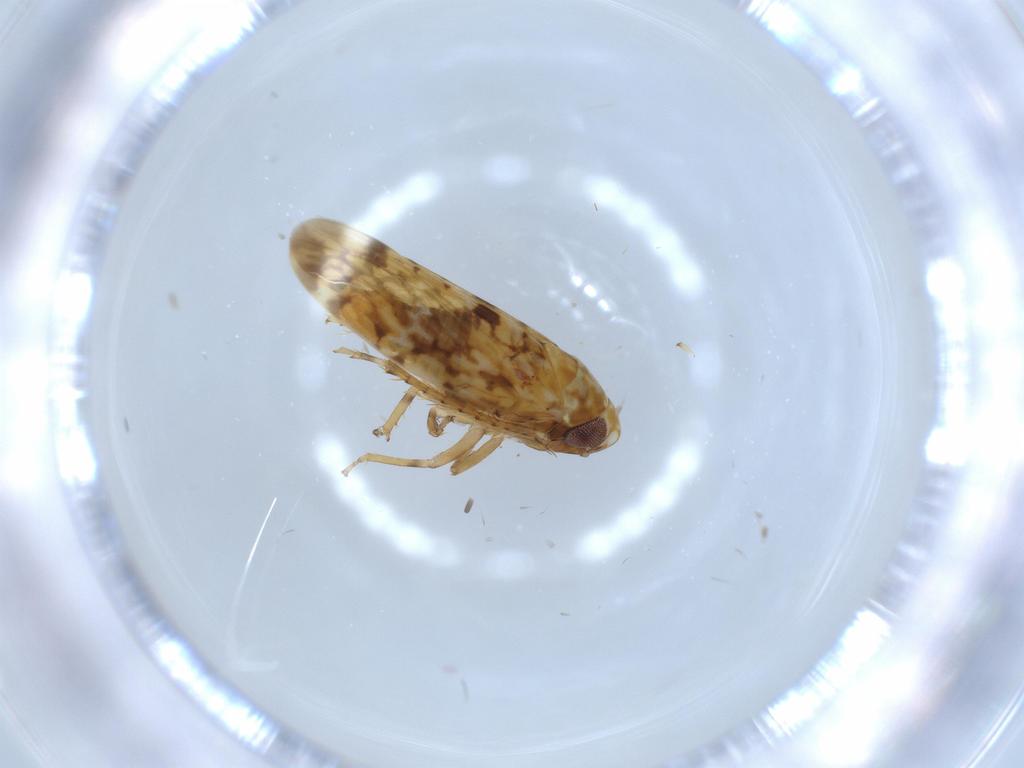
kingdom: Animalia
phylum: Arthropoda
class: Insecta
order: Hemiptera
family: Cicadellidae
